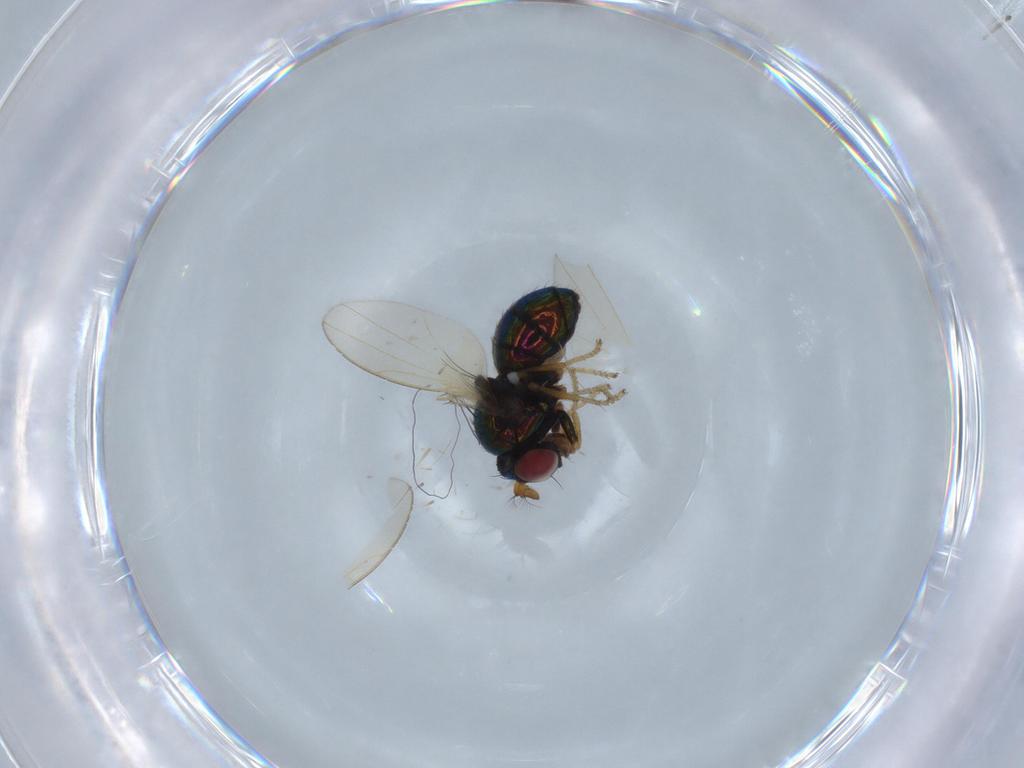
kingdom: Animalia
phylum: Arthropoda
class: Insecta
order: Diptera
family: Ephydridae
